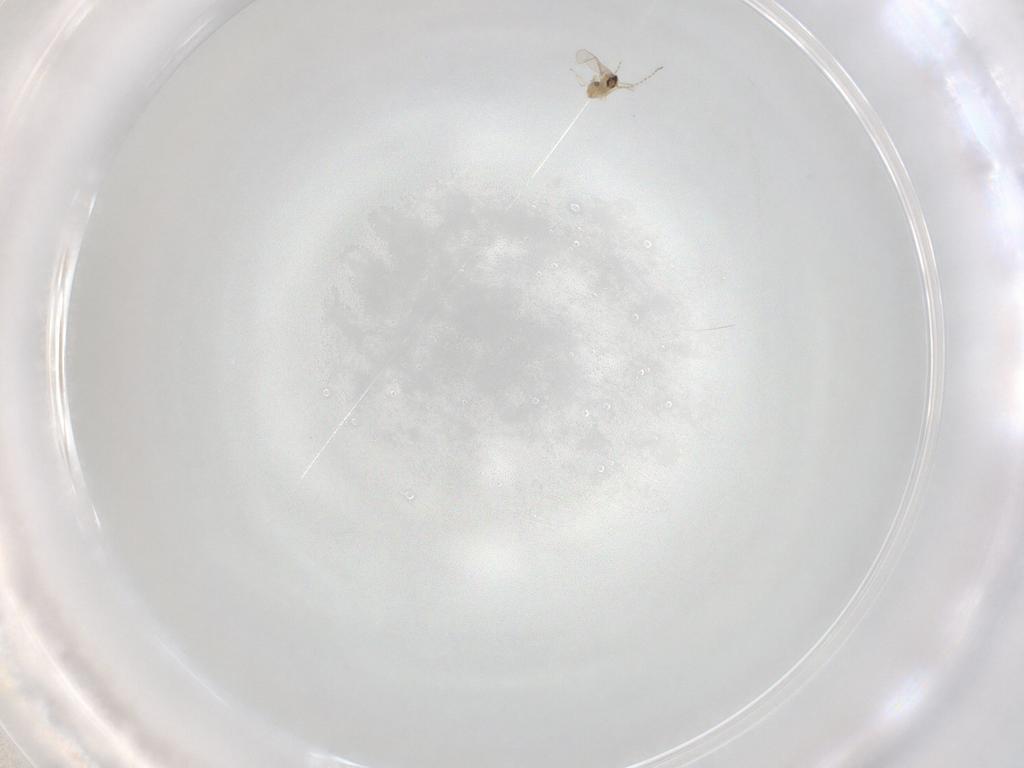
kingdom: Animalia
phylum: Arthropoda
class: Insecta
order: Diptera
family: Cecidomyiidae
